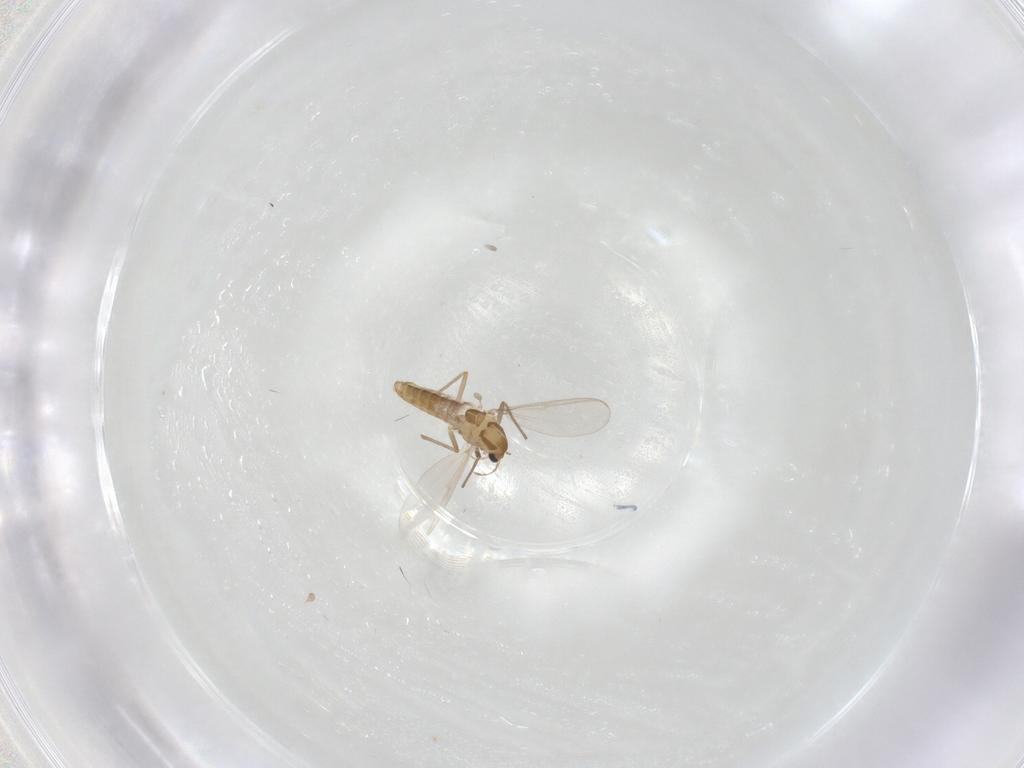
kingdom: Animalia
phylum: Arthropoda
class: Insecta
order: Diptera
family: Chironomidae
